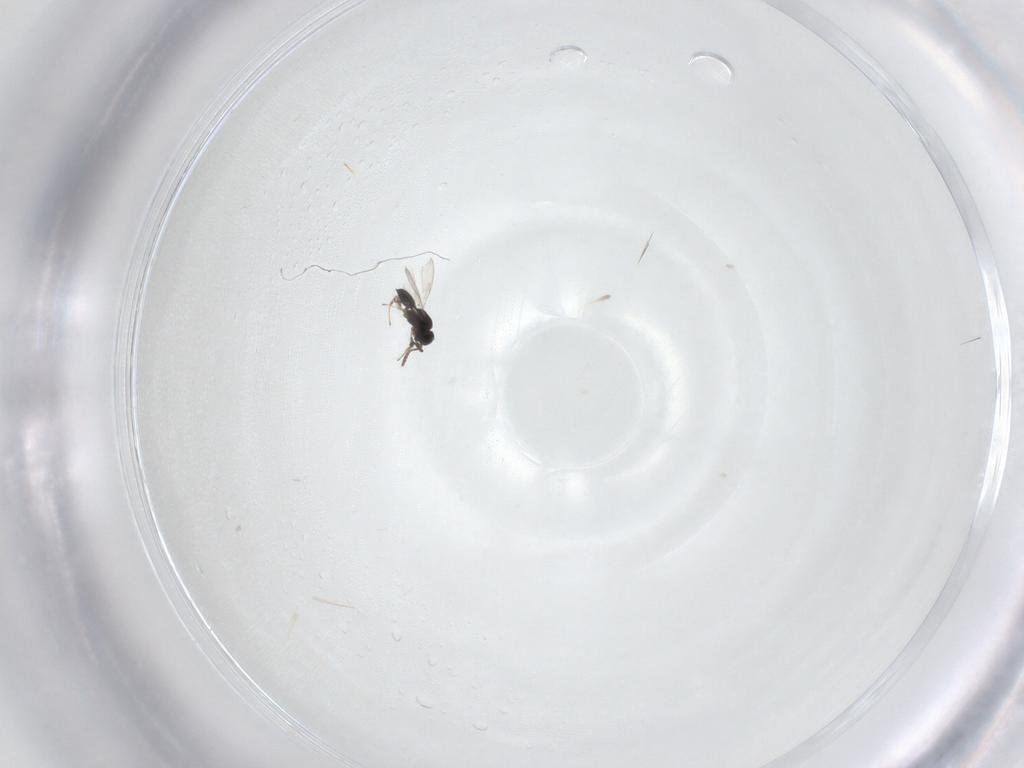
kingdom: Animalia
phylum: Arthropoda
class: Insecta
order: Hymenoptera
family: Scelionidae
